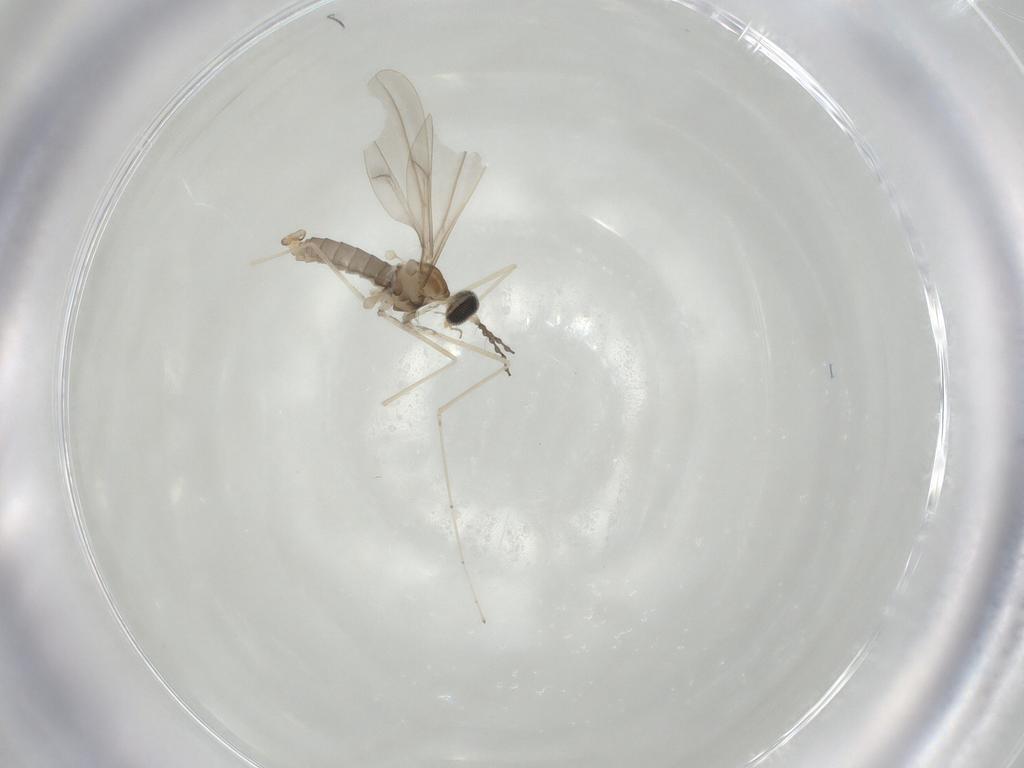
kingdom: Animalia
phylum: Arthropoda
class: Insecta
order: Diptera
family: Cecidomyiidae
